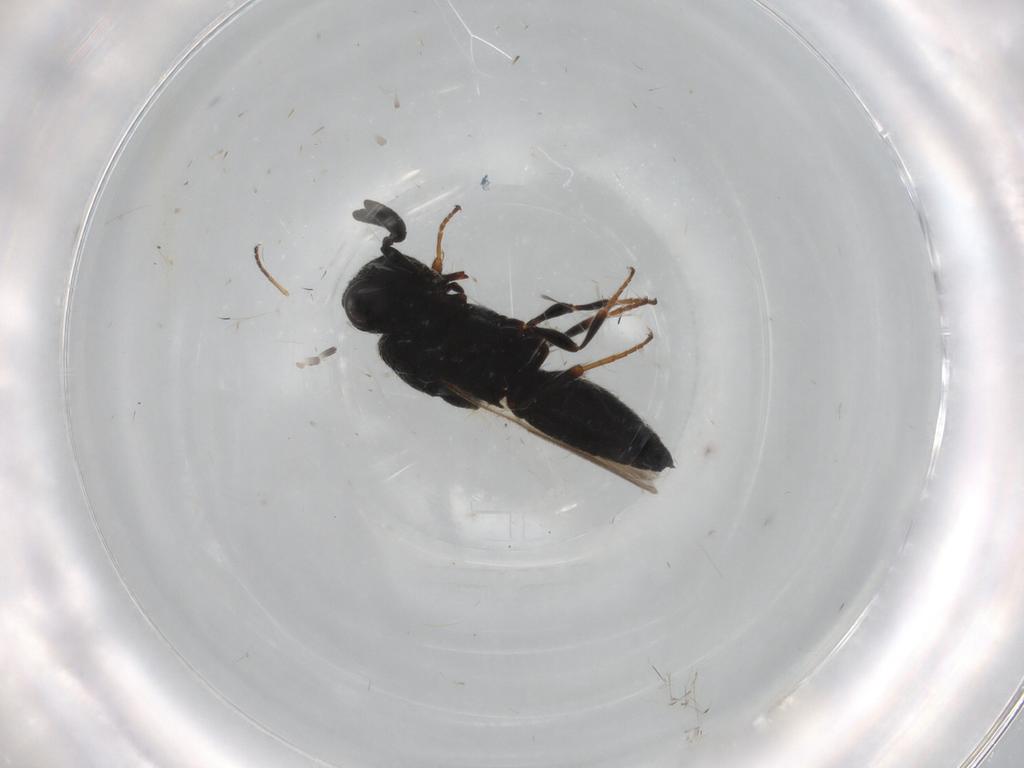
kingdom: Animalia
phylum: Arthropoda
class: Insecta
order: Hymenoptera
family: Scelionidae
